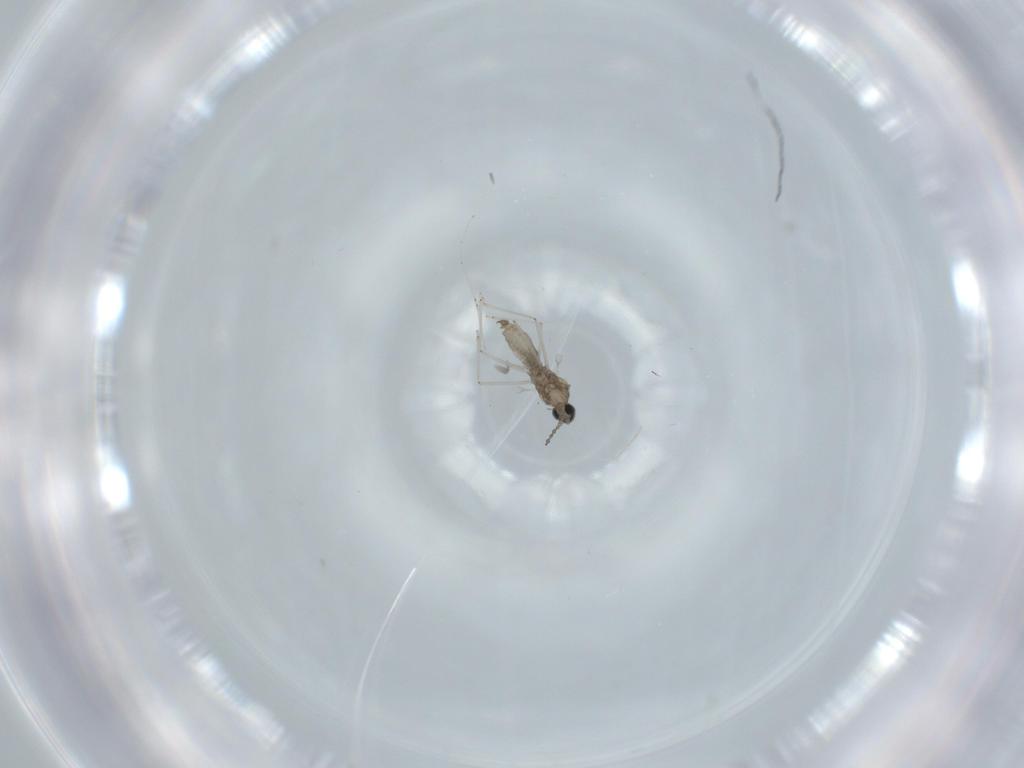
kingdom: Animalia
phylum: Arthropoda
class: Insecta
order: Diptera
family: Cecidomyiidae
